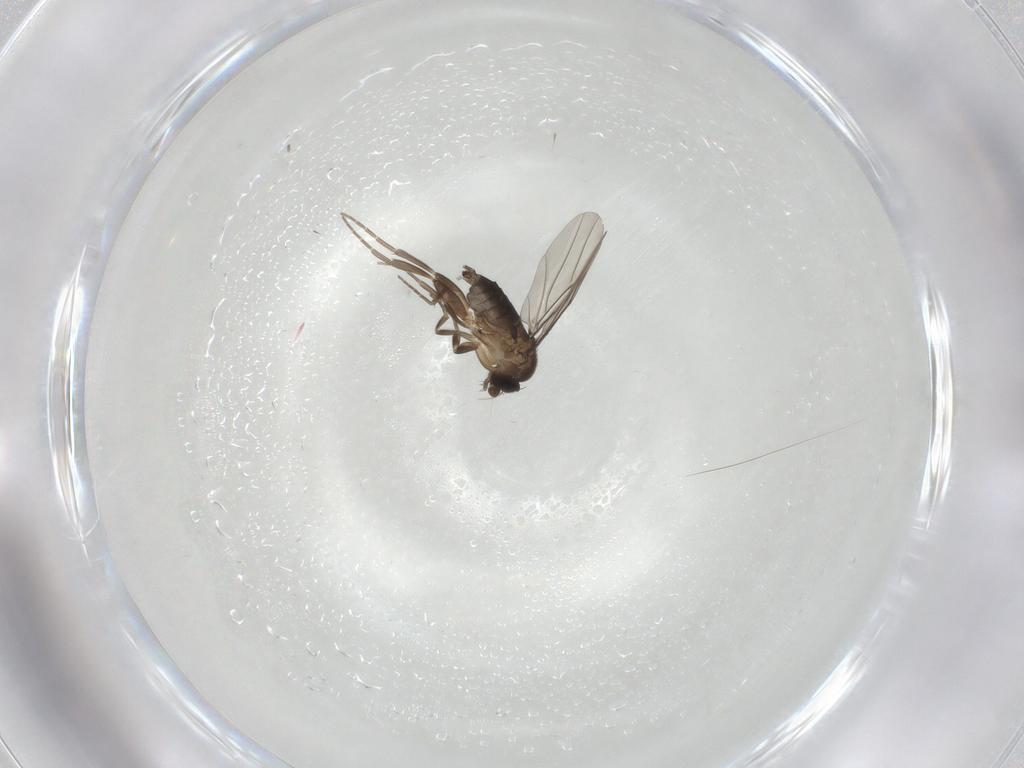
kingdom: Animalia
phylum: Arthropoda
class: Insecta
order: Diptera
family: Phoridae
